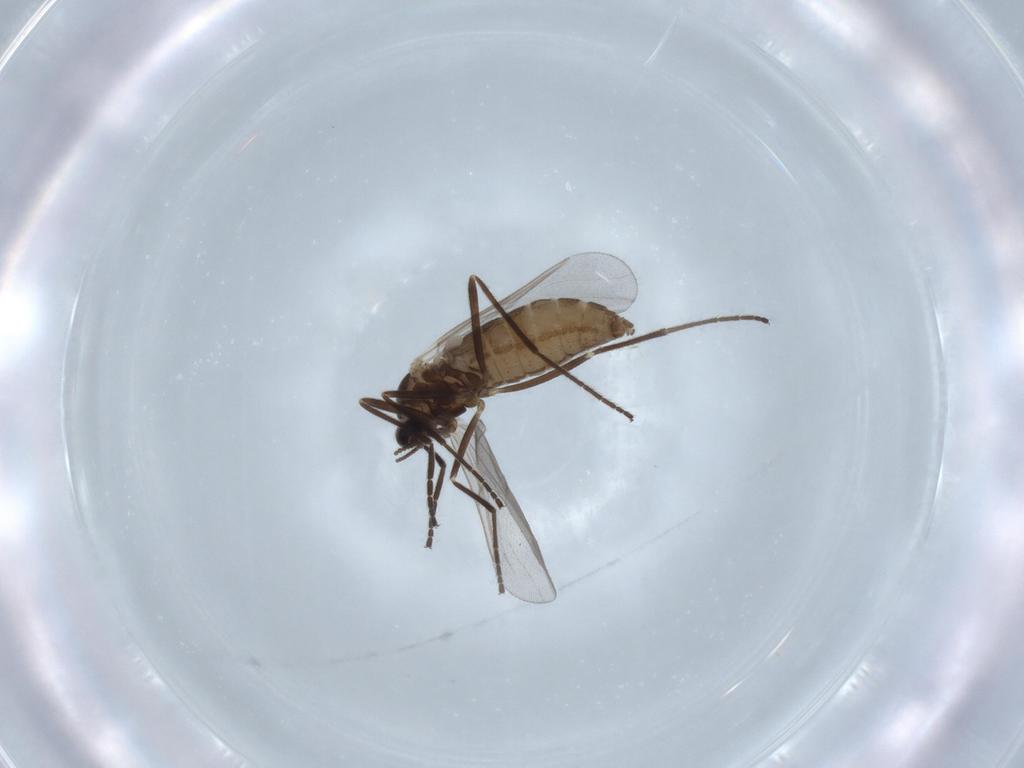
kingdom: Animalia
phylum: Arthropoda
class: Insecta
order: Diptera
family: Cecidomyiidae
